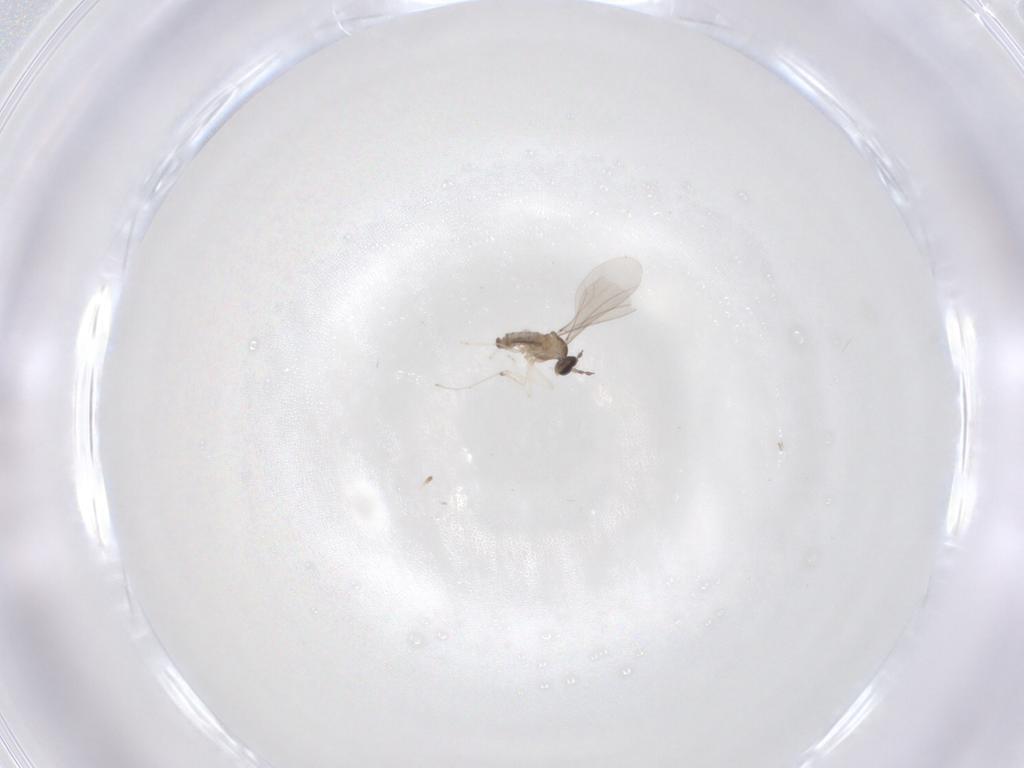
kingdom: Animalia
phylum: Arthropoda
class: Insecta
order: Diptera
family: Cecidomyiidae
